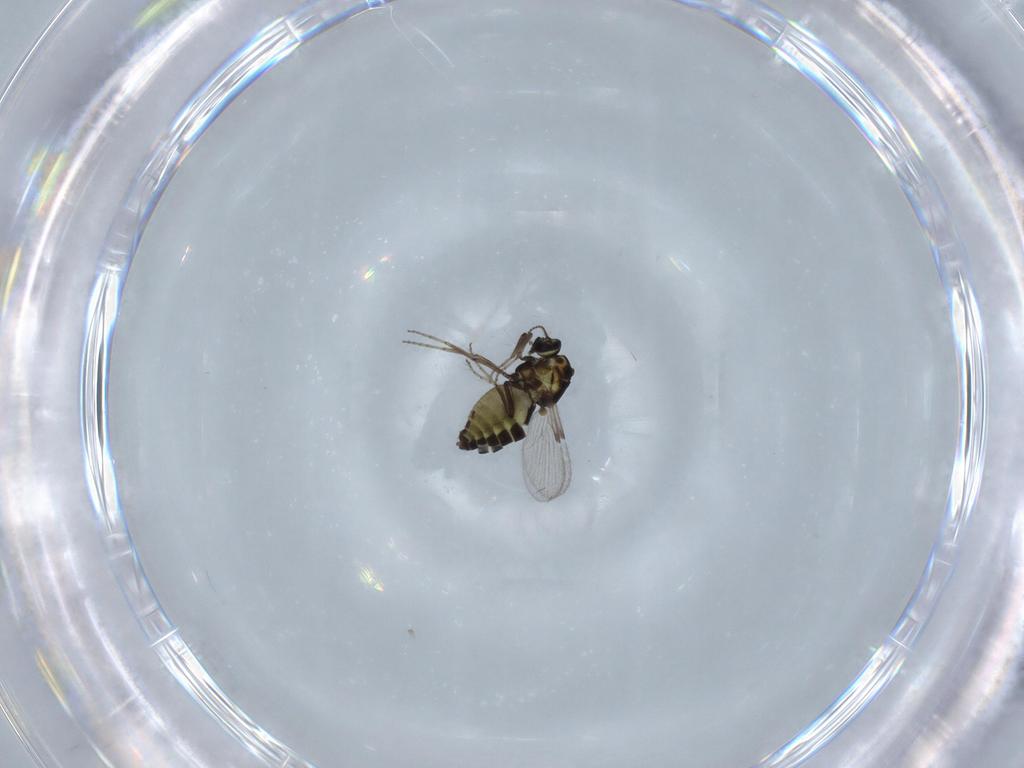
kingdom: Animalia
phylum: Arthropoda
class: Insecta
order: Diptera
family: Ceratopogonidae
